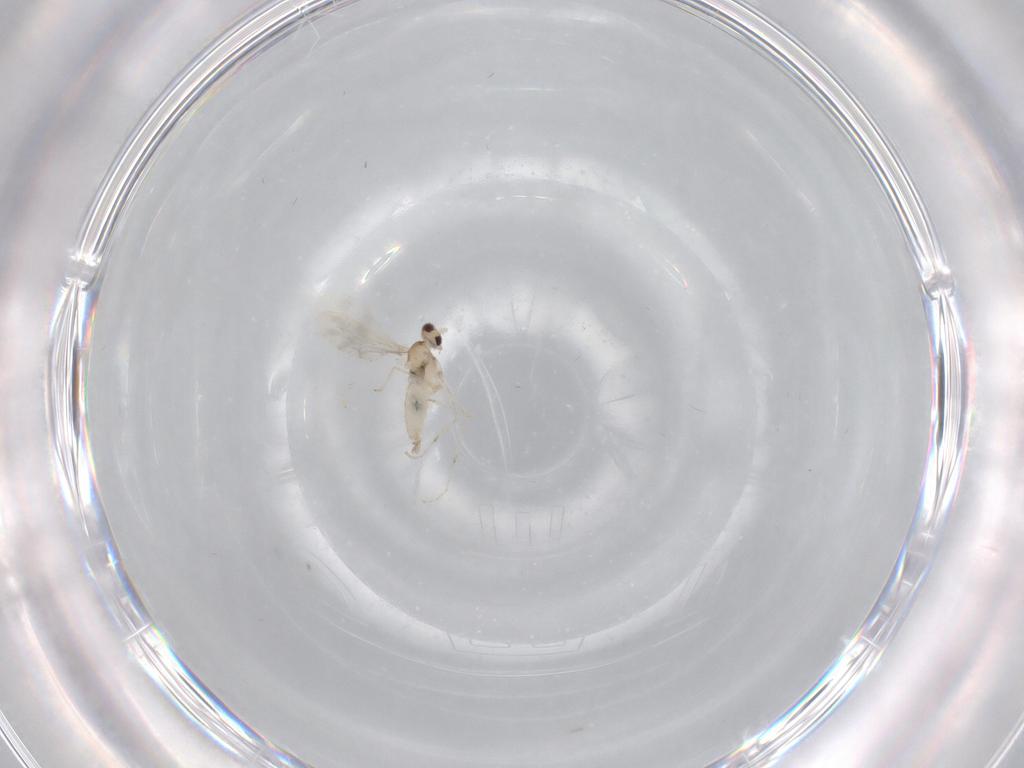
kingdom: Animalia
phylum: Arthropoda
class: Insecta
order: Diptera
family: Cecidomyiidae
